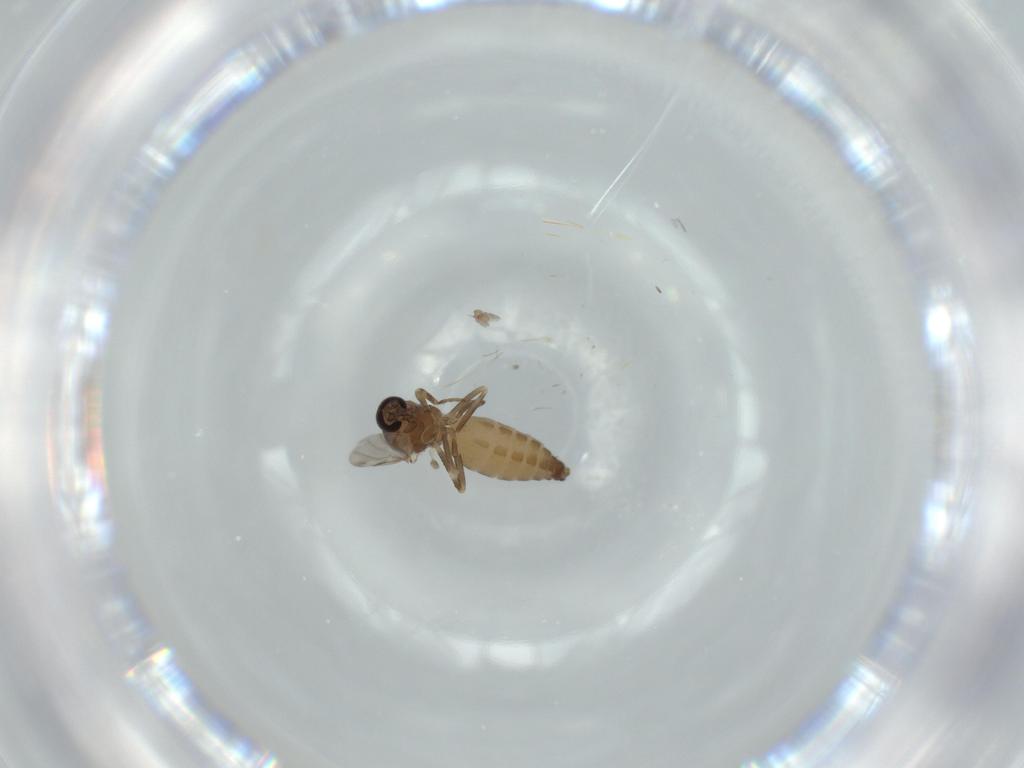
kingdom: Animalia
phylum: Arthropoda
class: Insecta
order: Diptera
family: Ceratopogonidae
